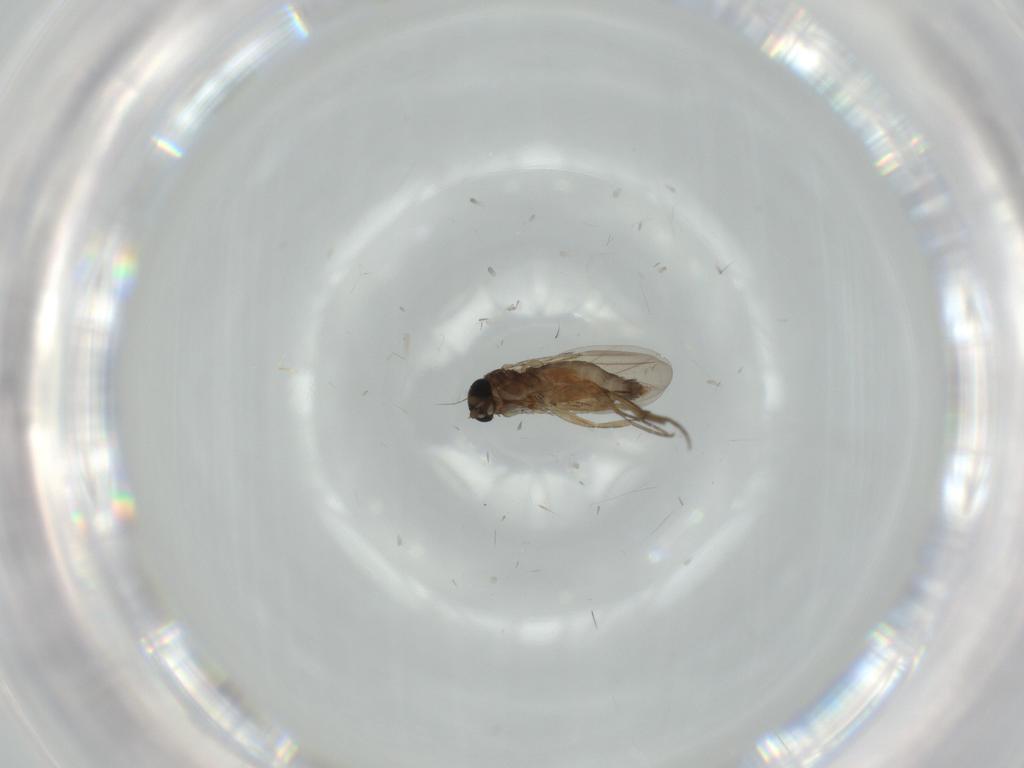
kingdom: Animalia
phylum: Arthropoda
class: Insecta
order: Diptera
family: Phoridae
